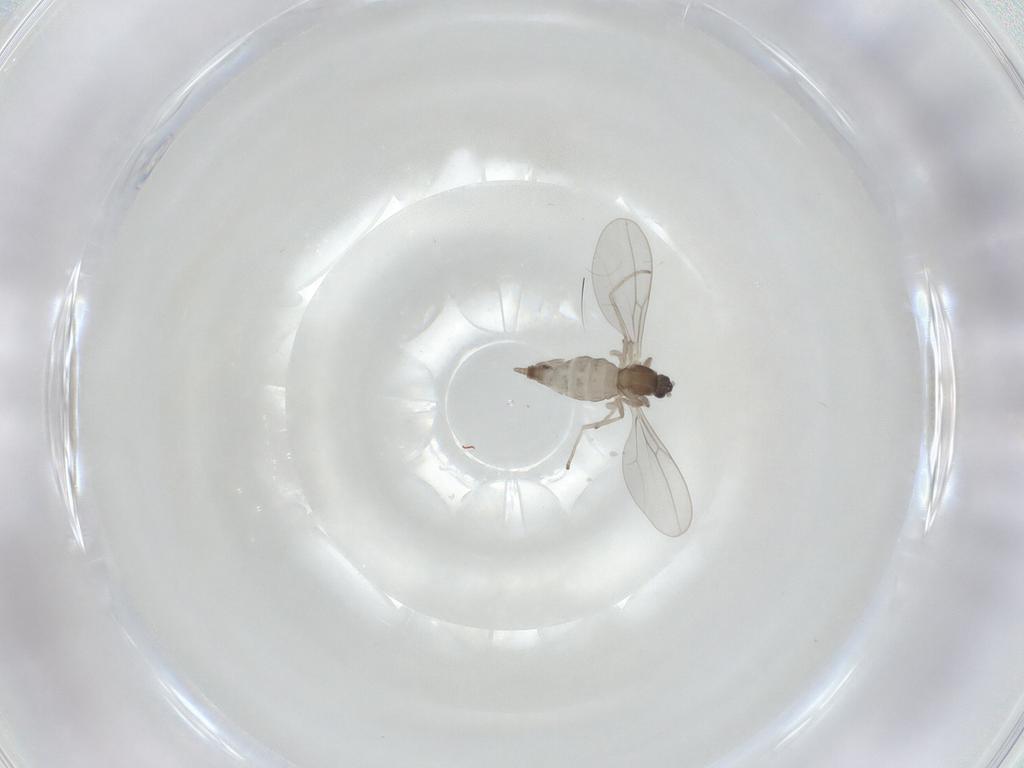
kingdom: Animalia
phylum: Arthropoda
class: Insecta
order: Diptera
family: Cecidomyiidae
